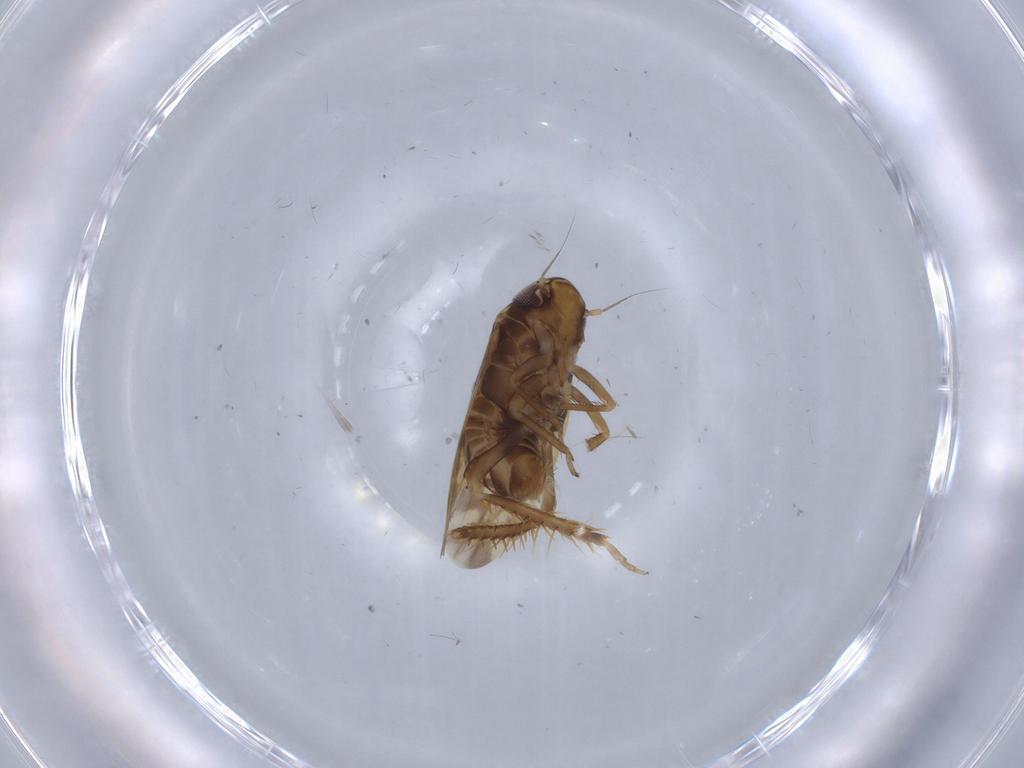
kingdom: Animalia
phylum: Arthropoda
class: Insecta
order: Hemiptera
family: Cicadellidae
